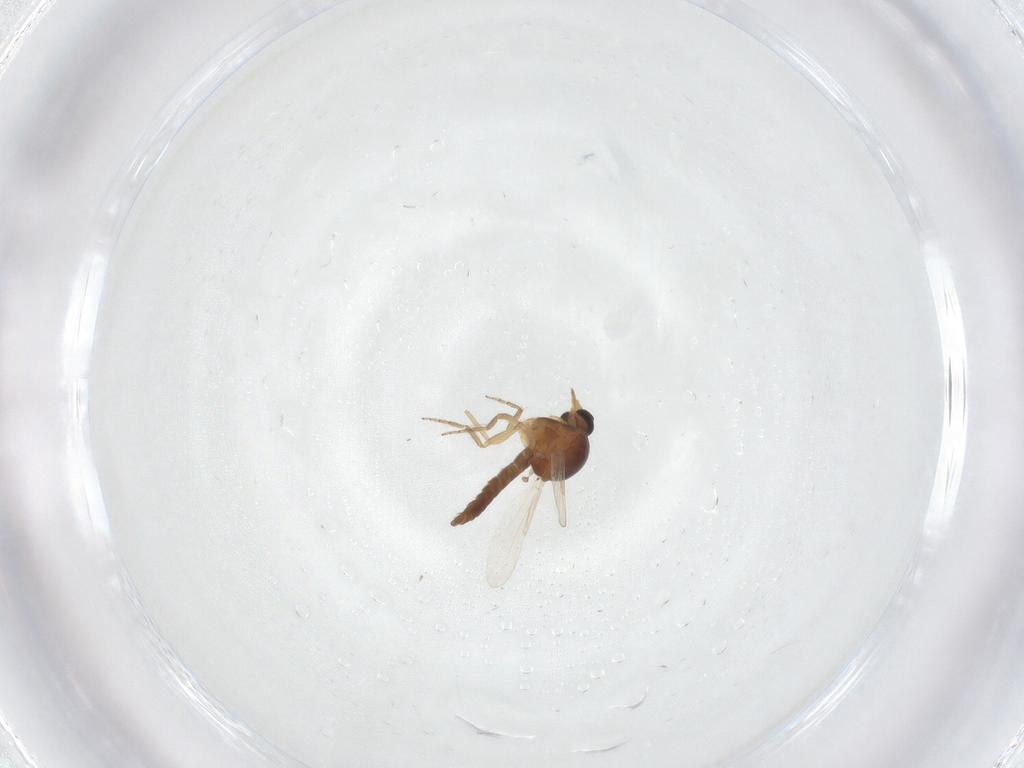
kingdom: Animalia
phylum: Arthropoda
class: Insecta
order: Diptera
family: Ceratopogonidae
